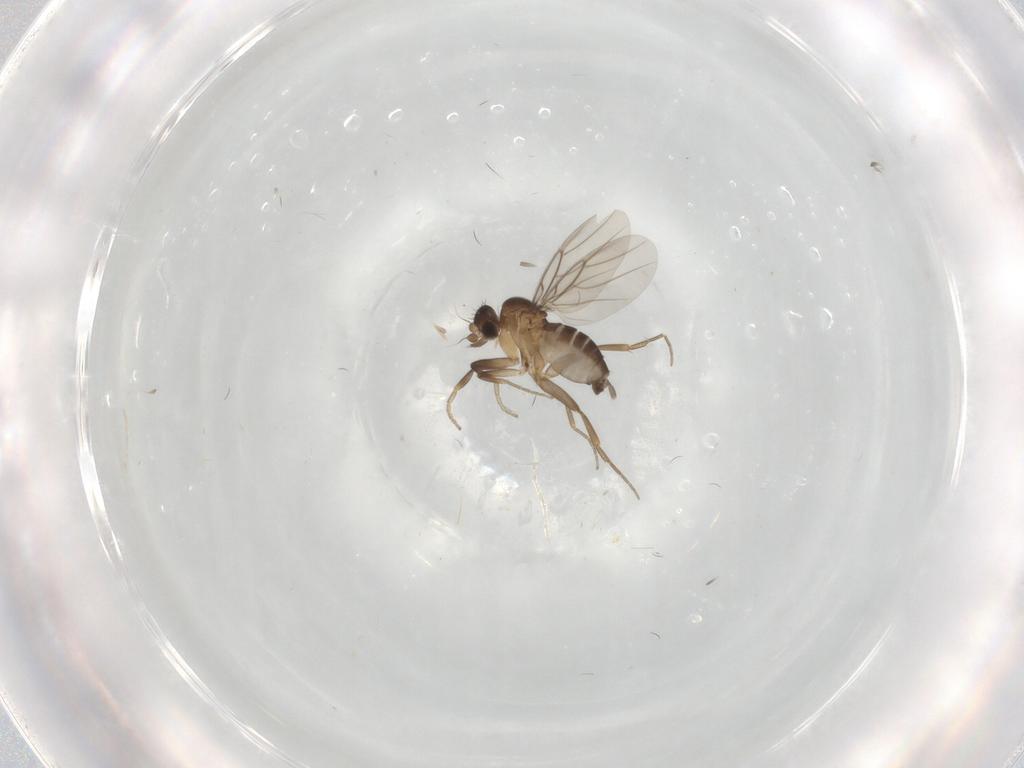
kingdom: Animalia
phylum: Arthropoda
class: Insecta
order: Diptera
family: Phoridae
